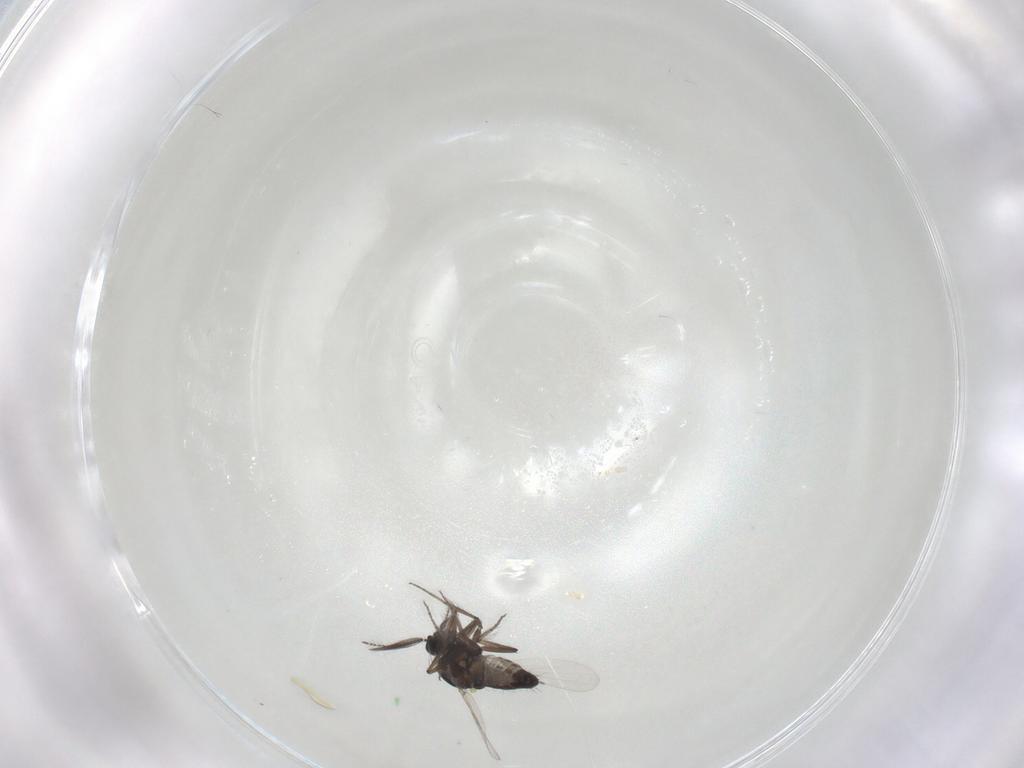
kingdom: Animalia
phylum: Arthropoda
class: Insecta
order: Diptera
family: Ceratopogonidae
